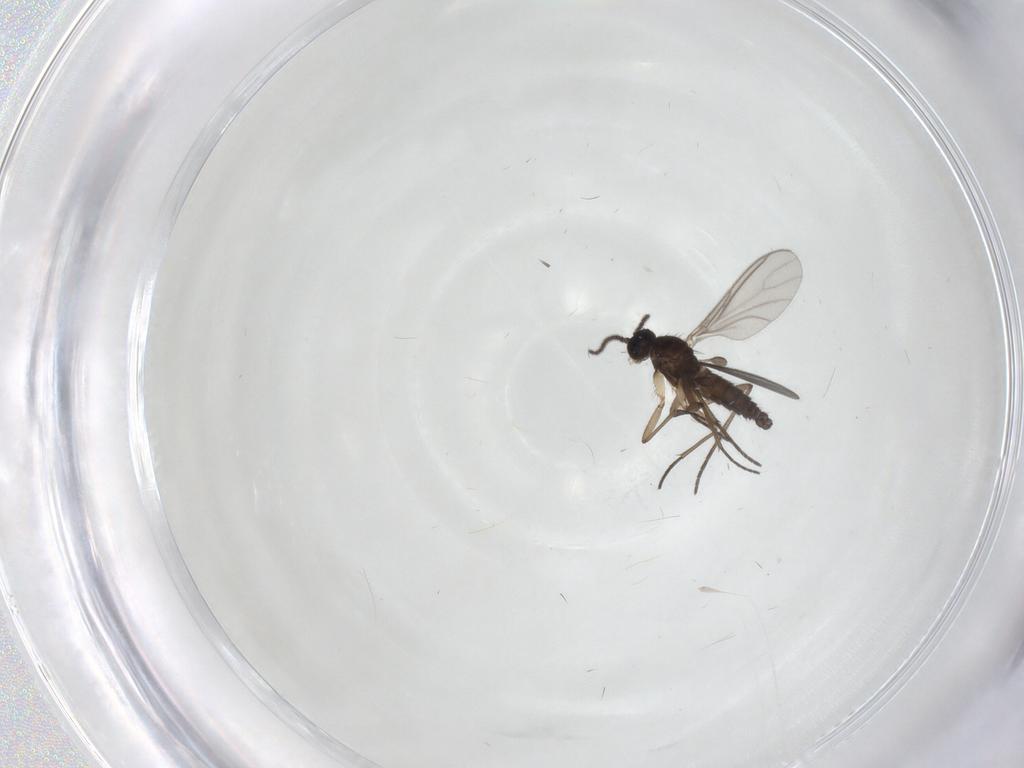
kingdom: Animalia
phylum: Arthropoda
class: Insecta
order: Diptera
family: Sciaridae
